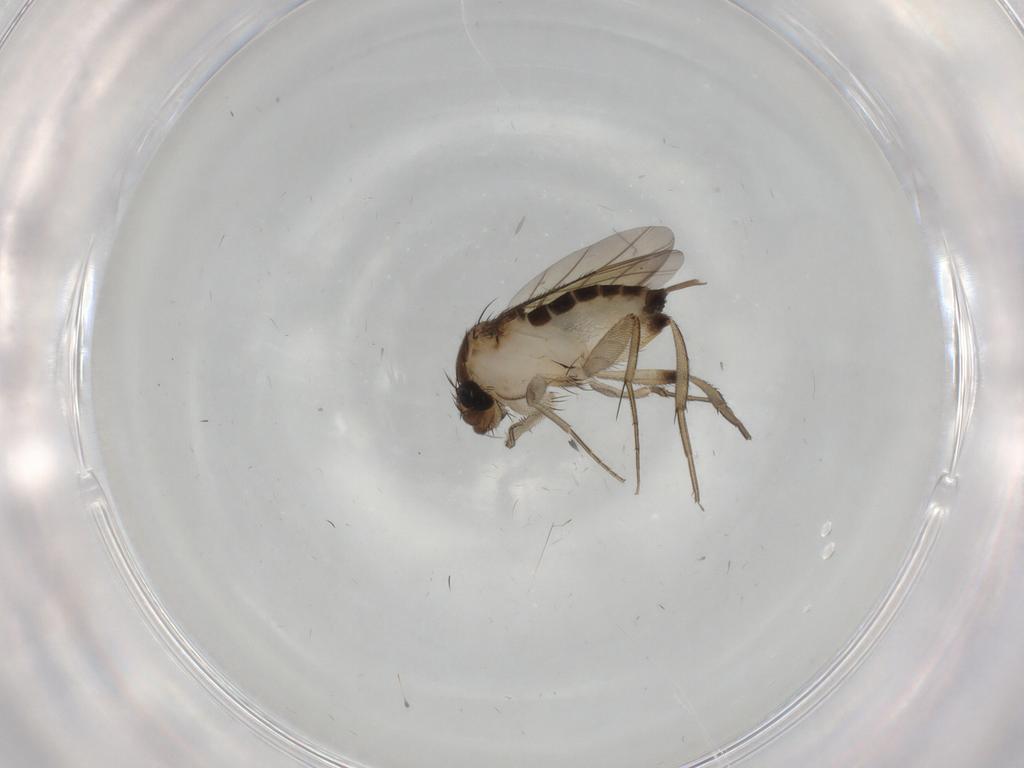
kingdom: Animalia
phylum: Arthropoda
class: Insecta
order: Diptera
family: Phoridae
